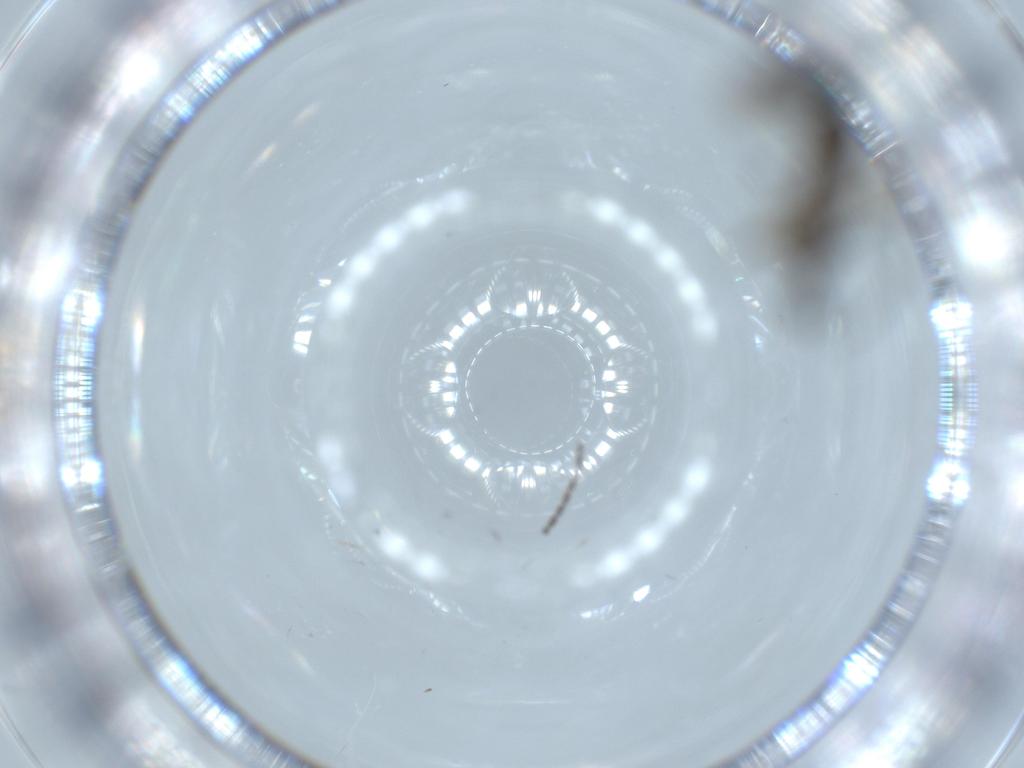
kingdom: Animalia
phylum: Arthropoda
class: Insecta
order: Diptera
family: Sciaridae
